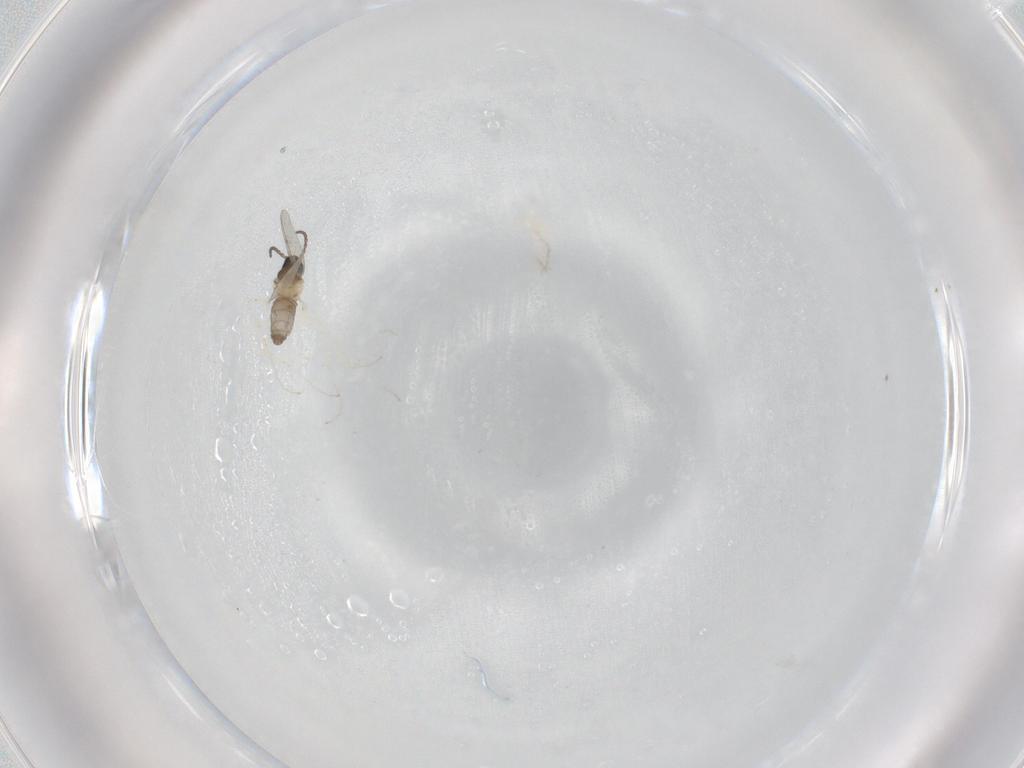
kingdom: Animalia
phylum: Arthropoda
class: Insecta
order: Diptera
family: Cecidomyiidae
